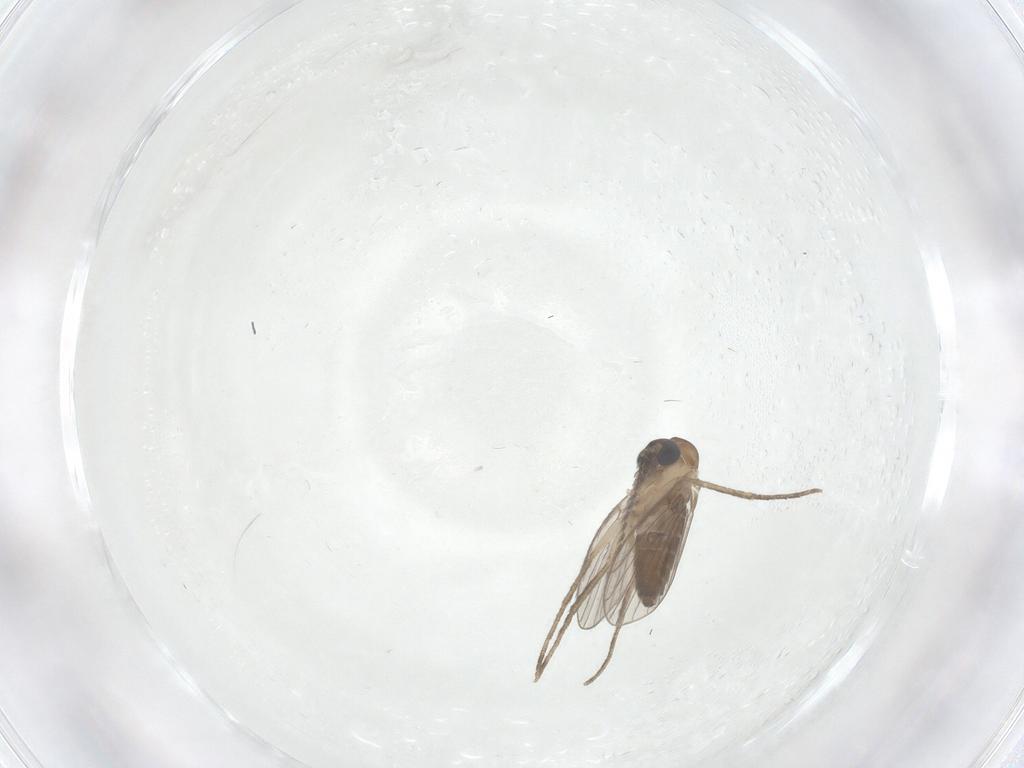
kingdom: Animalia
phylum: Arthropoda
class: Insecta
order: Diptera
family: Chironomidae
